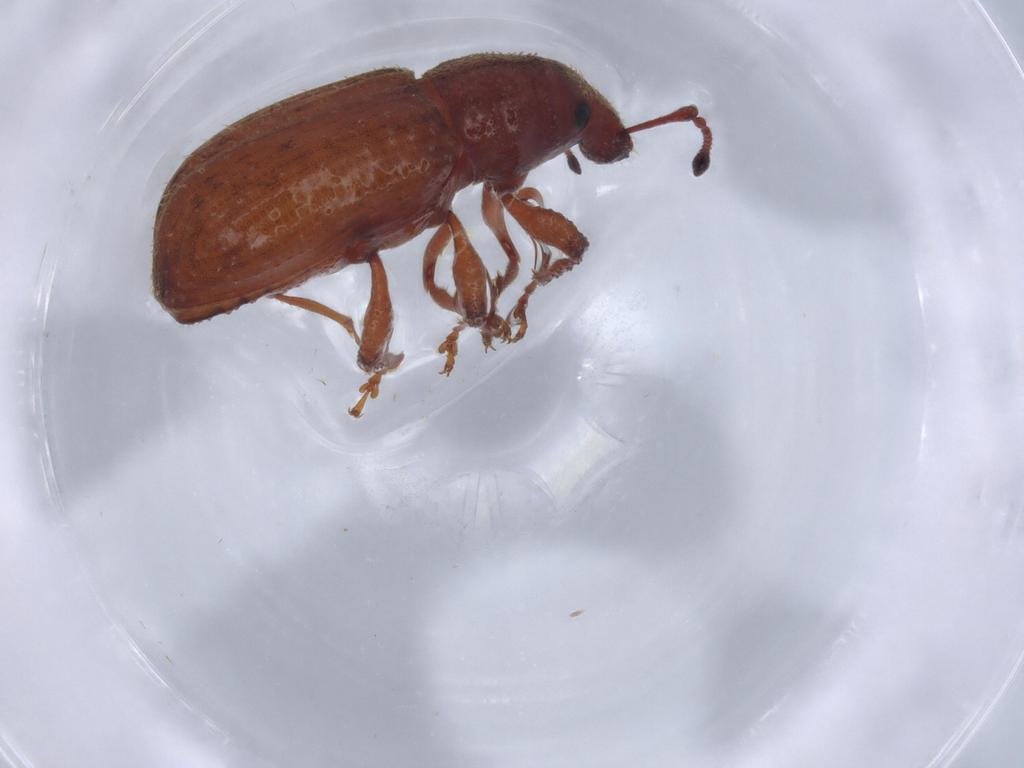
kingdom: Animalia
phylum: Arthropoda
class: Insecta
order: Coleoptera
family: Curculionidae
